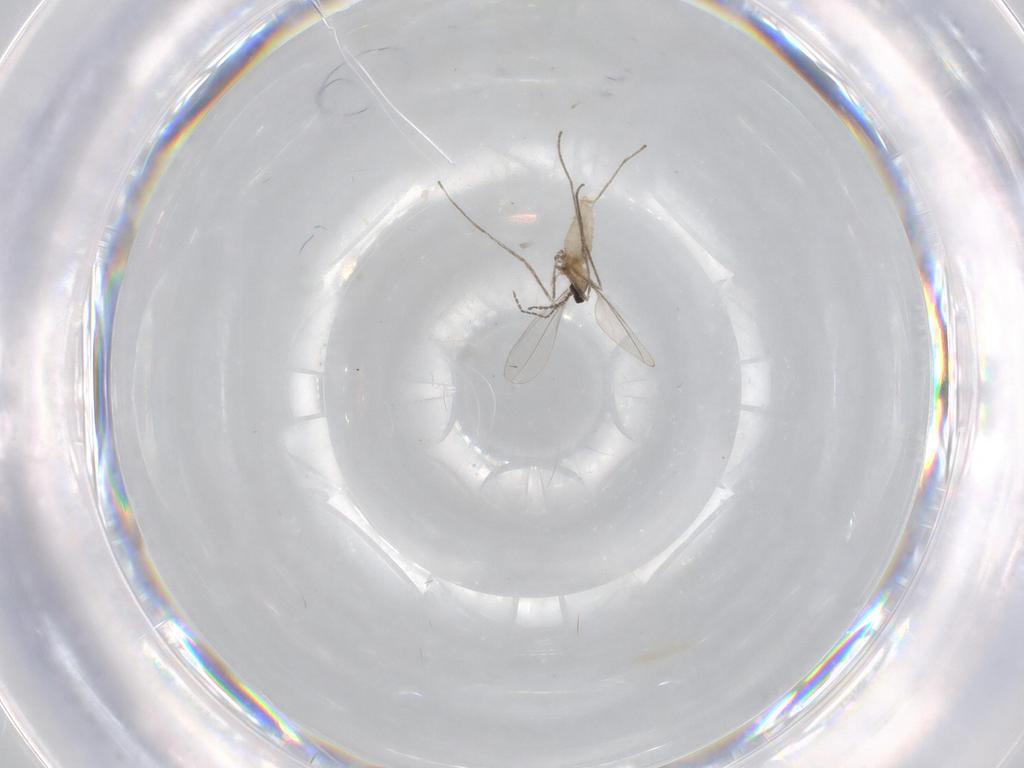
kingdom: Animalia
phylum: Arthropoda
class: Insecta
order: Diptera
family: Cecidomyiidae
